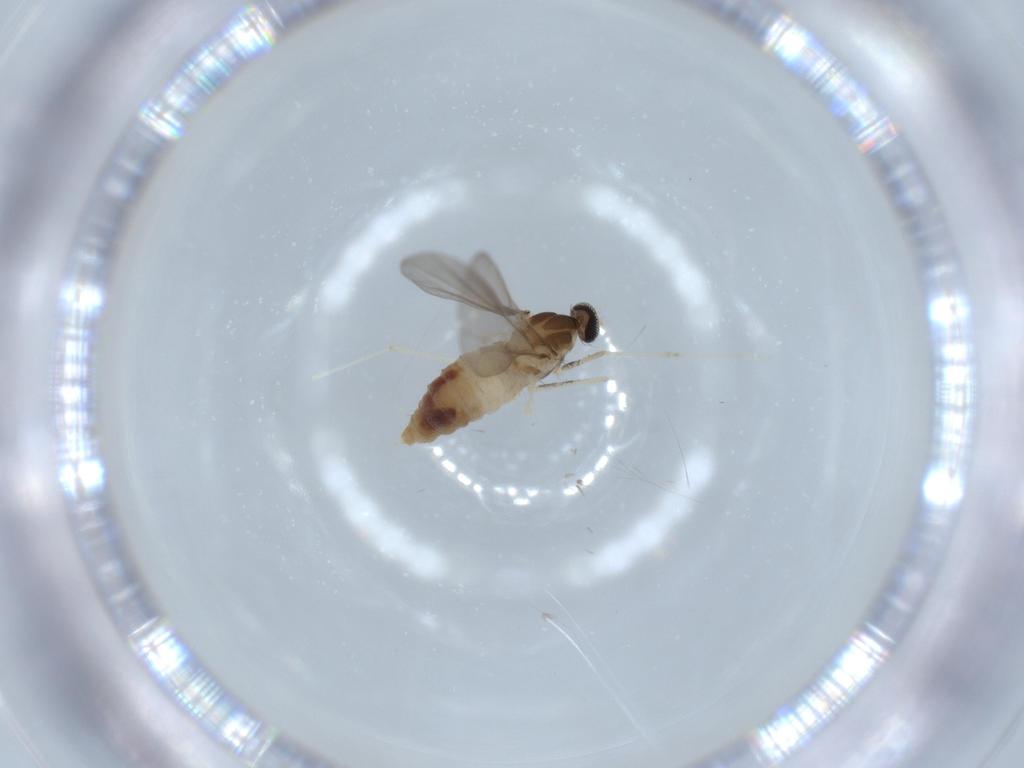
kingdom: Animalia
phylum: Arthropoda
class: Insecta
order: Diptera
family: Cecidomyiidae
